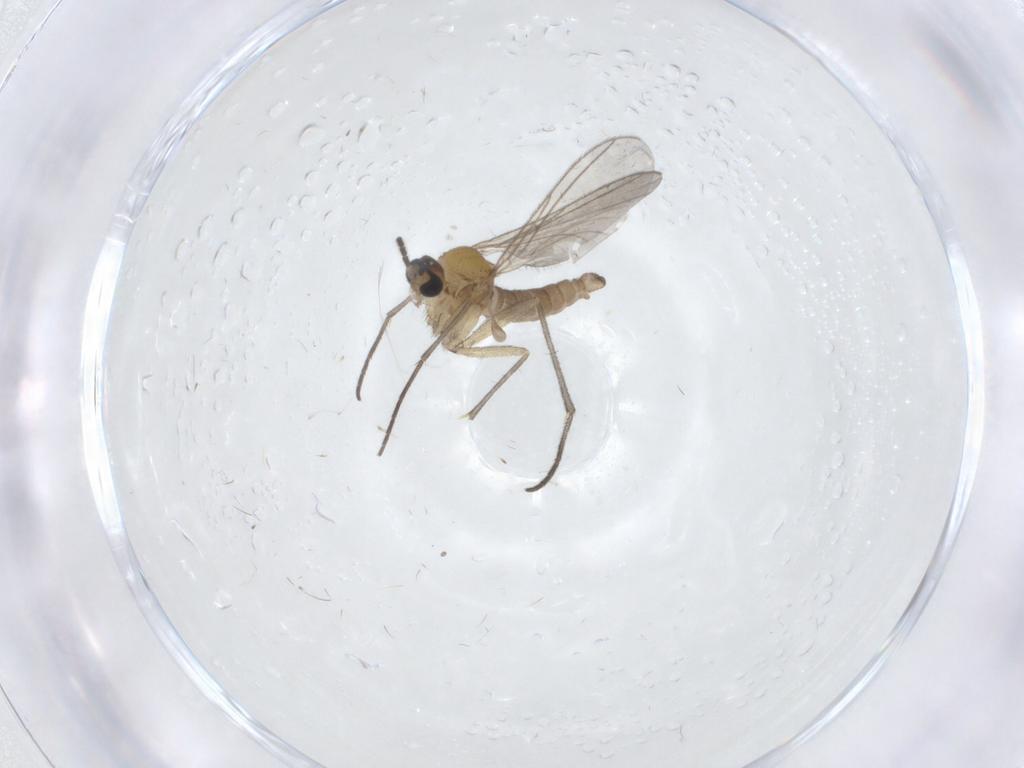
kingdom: Animalia
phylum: Arthropoda
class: Insecta
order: Diptera
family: Sciaridae
